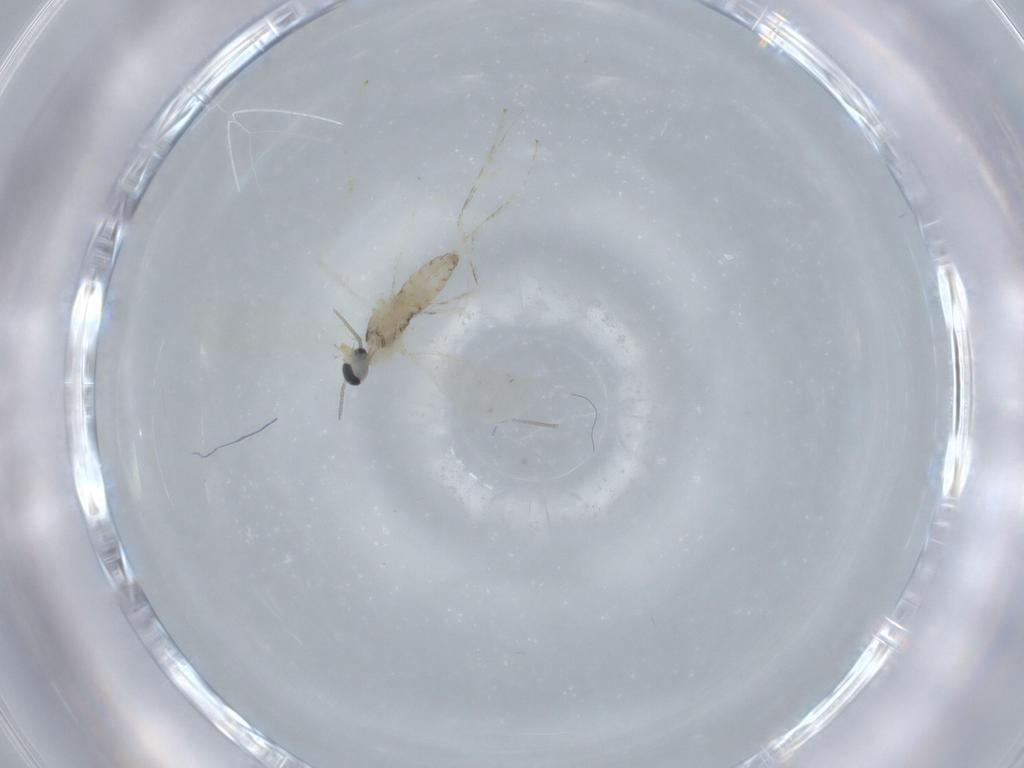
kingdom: Animalia
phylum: Arthropoda
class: Insecta
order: Diptera
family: Cecidomyiidae
